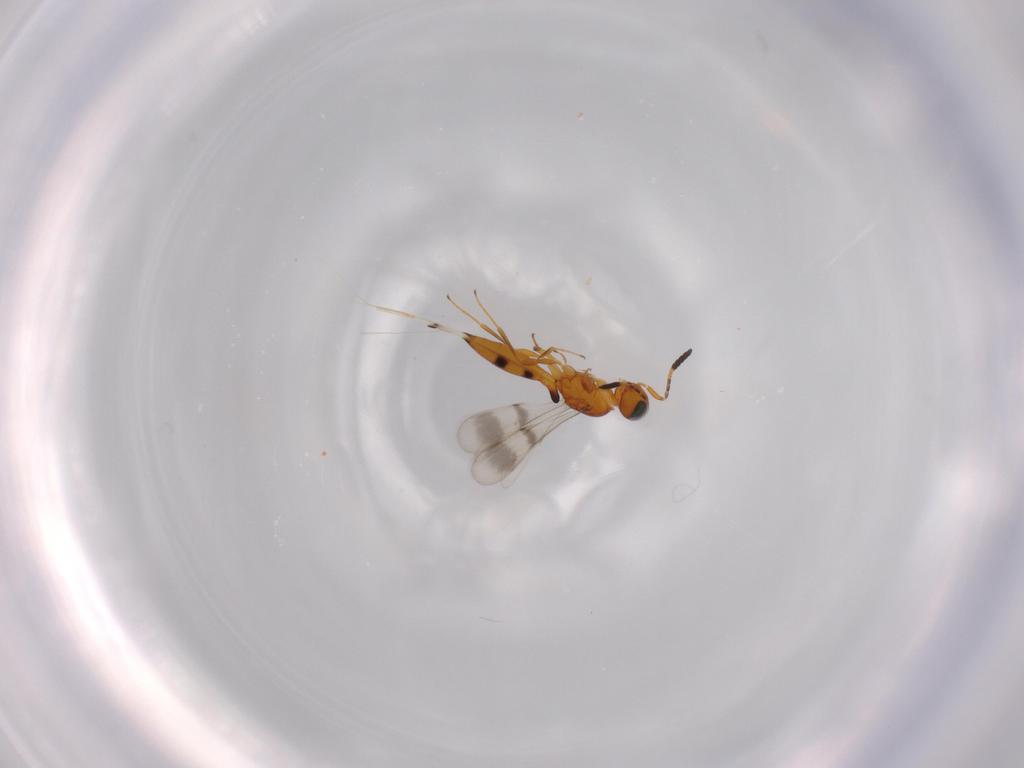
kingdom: Animalia
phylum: Arthropoda
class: Insecta
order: Hymenoptera
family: Scelionidae
